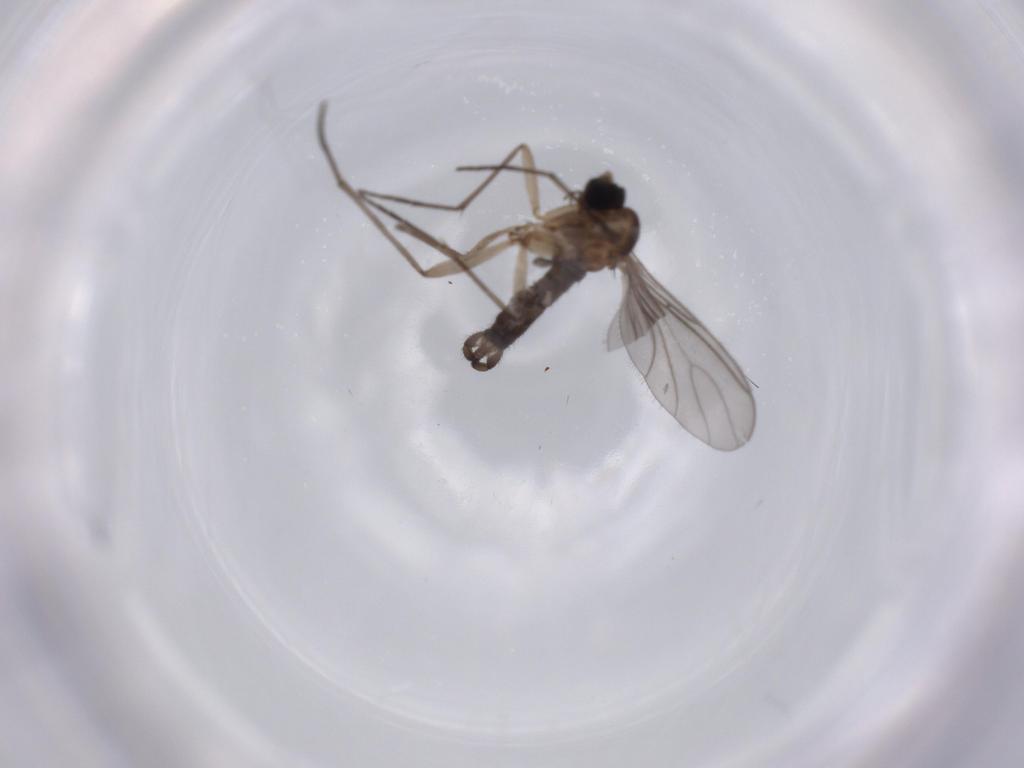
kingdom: Animalia
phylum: Arthropoda
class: Insecta
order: Diptera
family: Sciaridae
